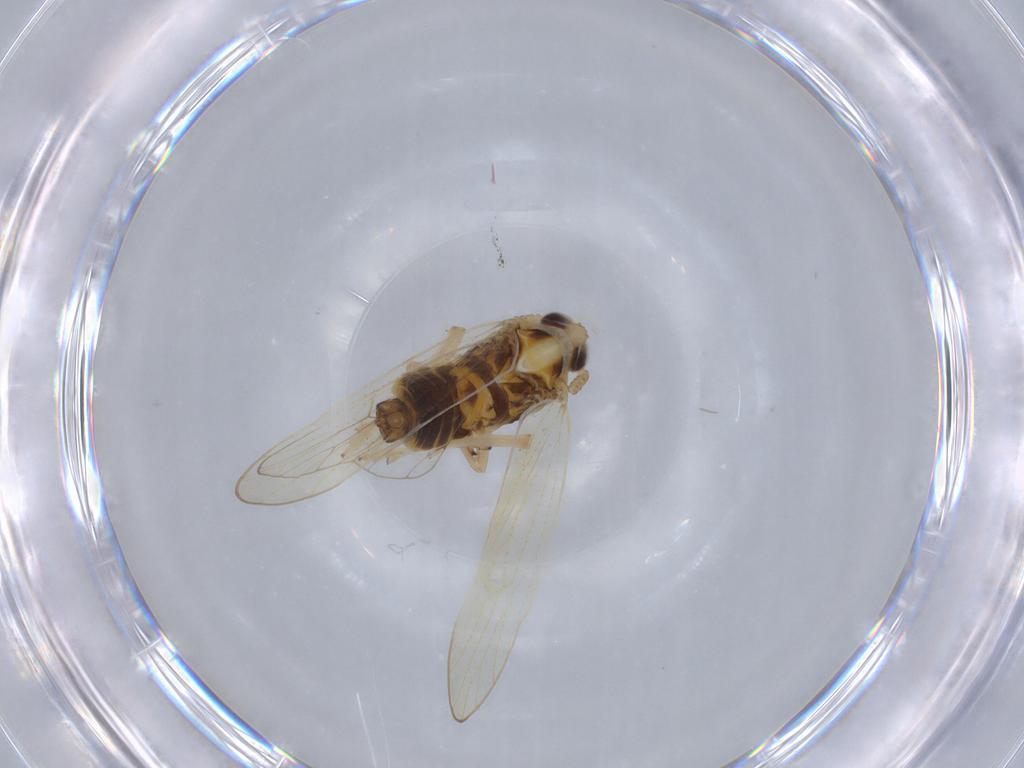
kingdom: Animalia
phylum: Arthropoda
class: Insecta
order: Hemiptera
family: Delphacidae
